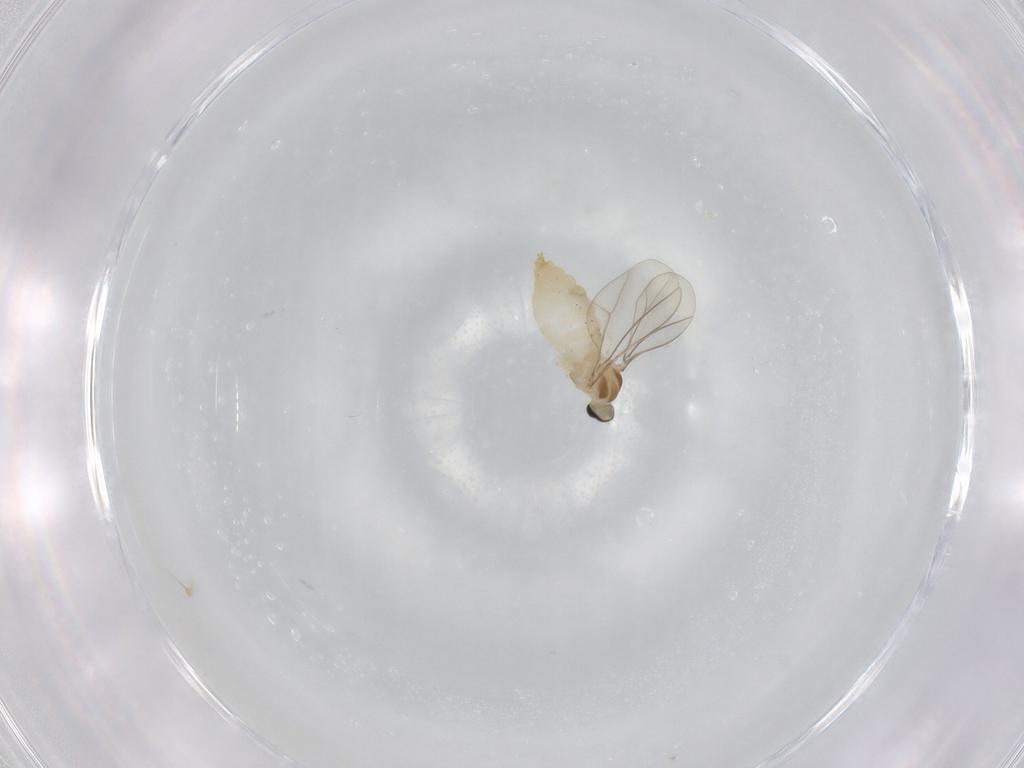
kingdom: Animalia
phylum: Arthropoda
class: Insecta
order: Diptera
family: Cecidomyiidae
